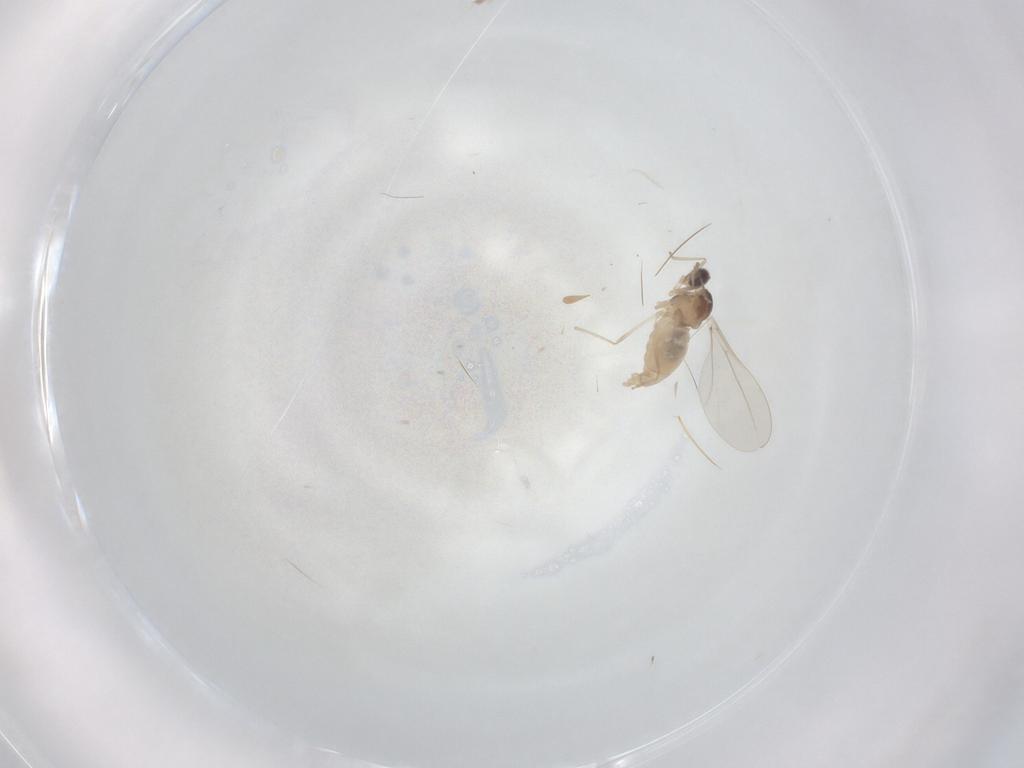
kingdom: Animalia
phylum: Arthropoda
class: Insecta
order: Diptera
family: Cecidomyiidae
